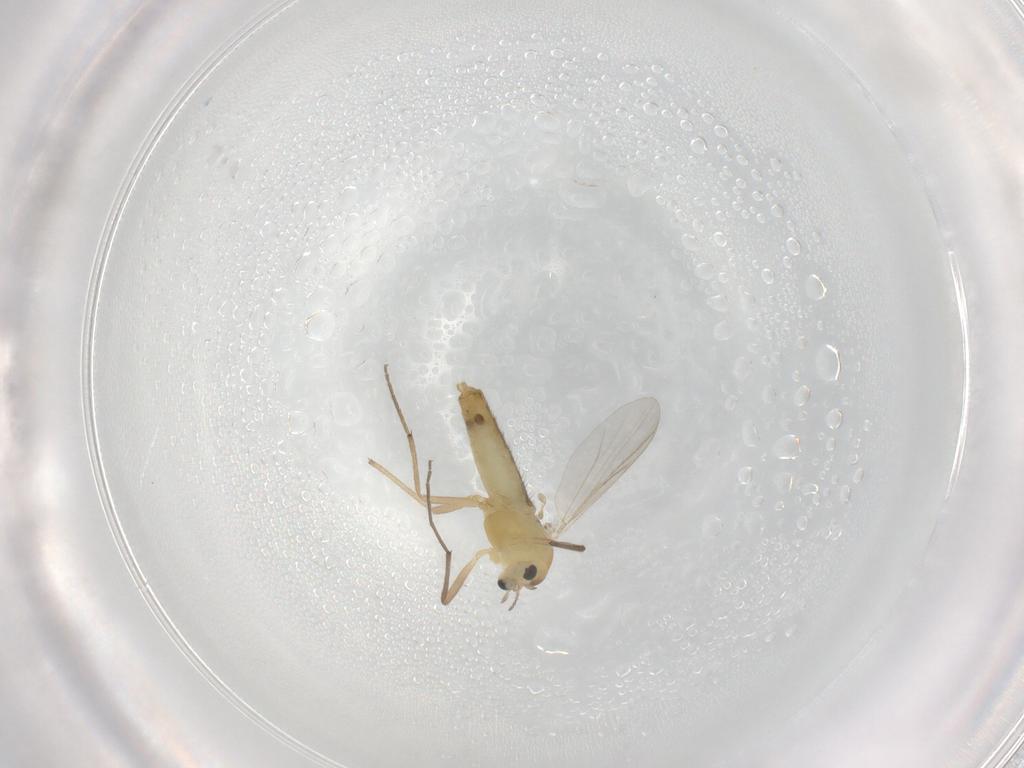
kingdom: Animalia
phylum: Arthropoda
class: Insecta
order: Diptera
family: Chironomidae
